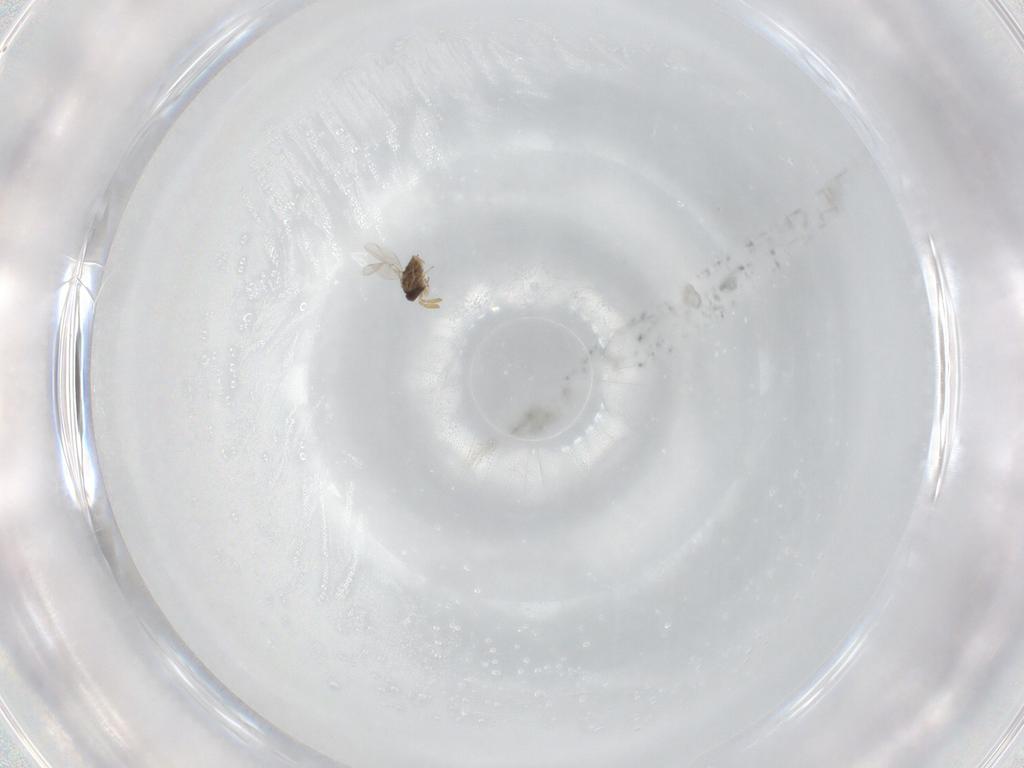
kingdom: Animalia
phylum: Arthropoda
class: Insecta
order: Hymenoptera
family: Encyrtidae
